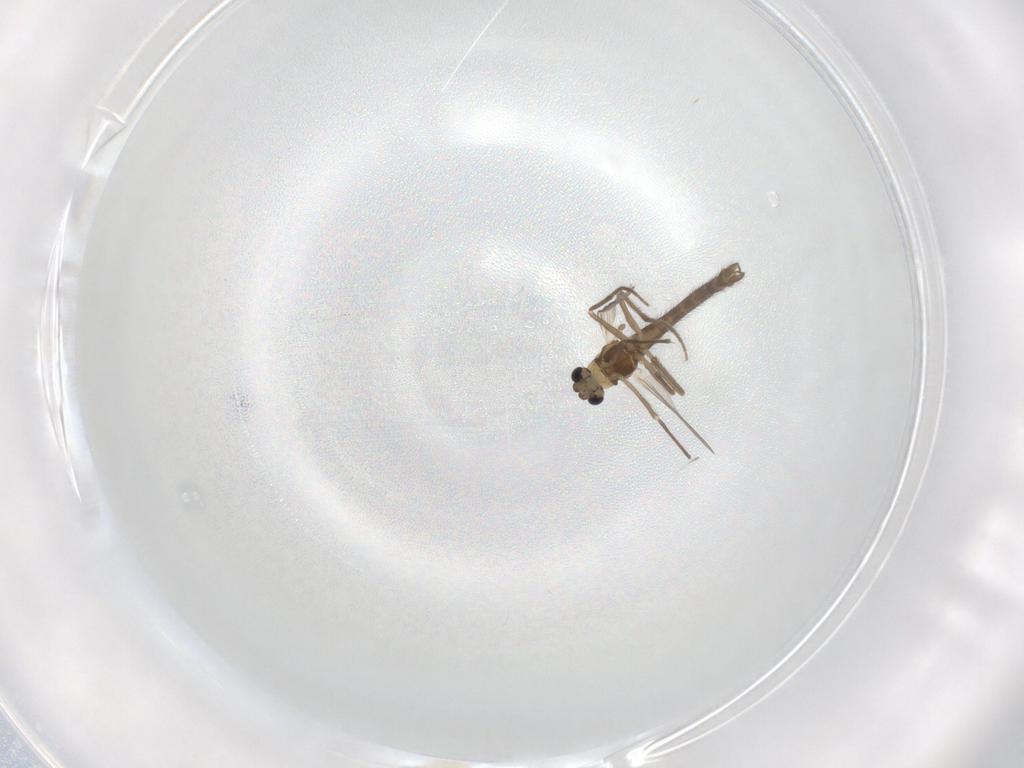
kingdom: Animalia
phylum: Arthropoda
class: Insecta
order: Diptera
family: Chironomidae
